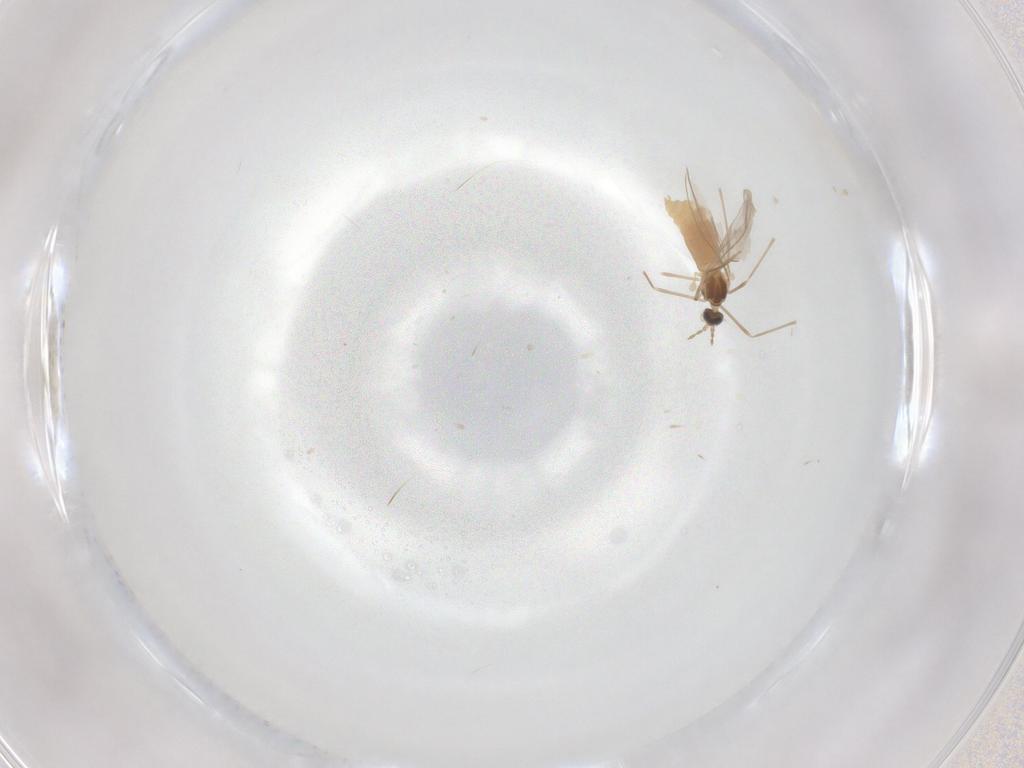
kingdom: Animalia
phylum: Arthropoda
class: Insecta
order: Diptera
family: Cecidomyiidae
